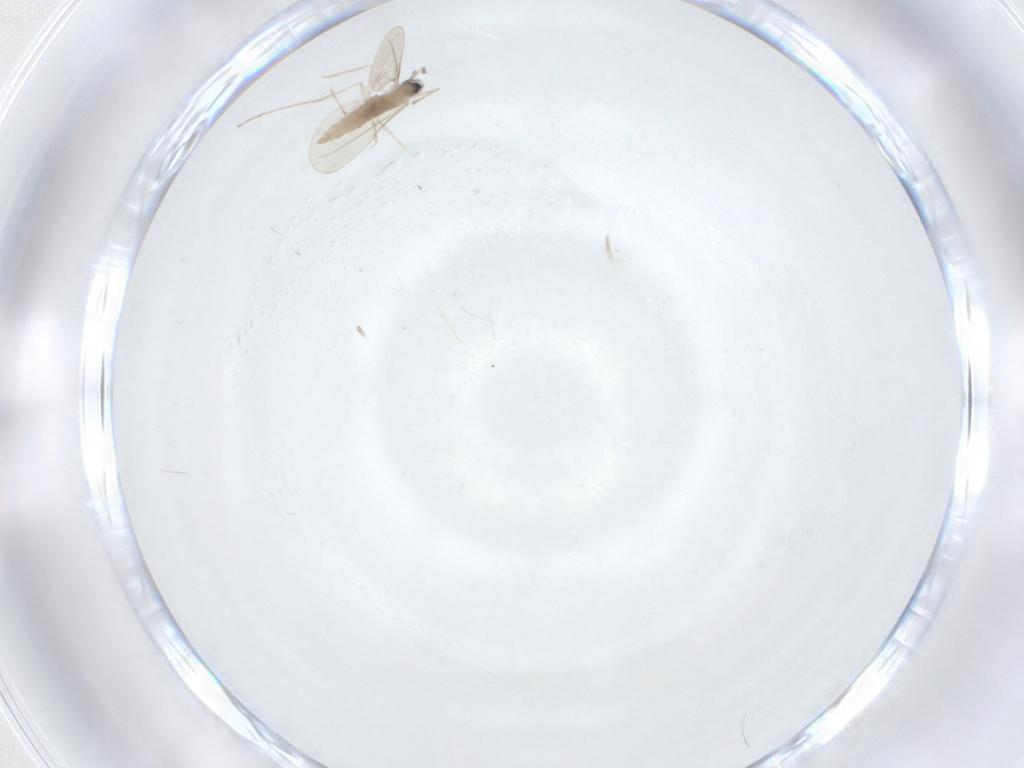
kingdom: Animalia
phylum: Arthropoda
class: Insecta
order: Diptera
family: Cecidomyiidae
